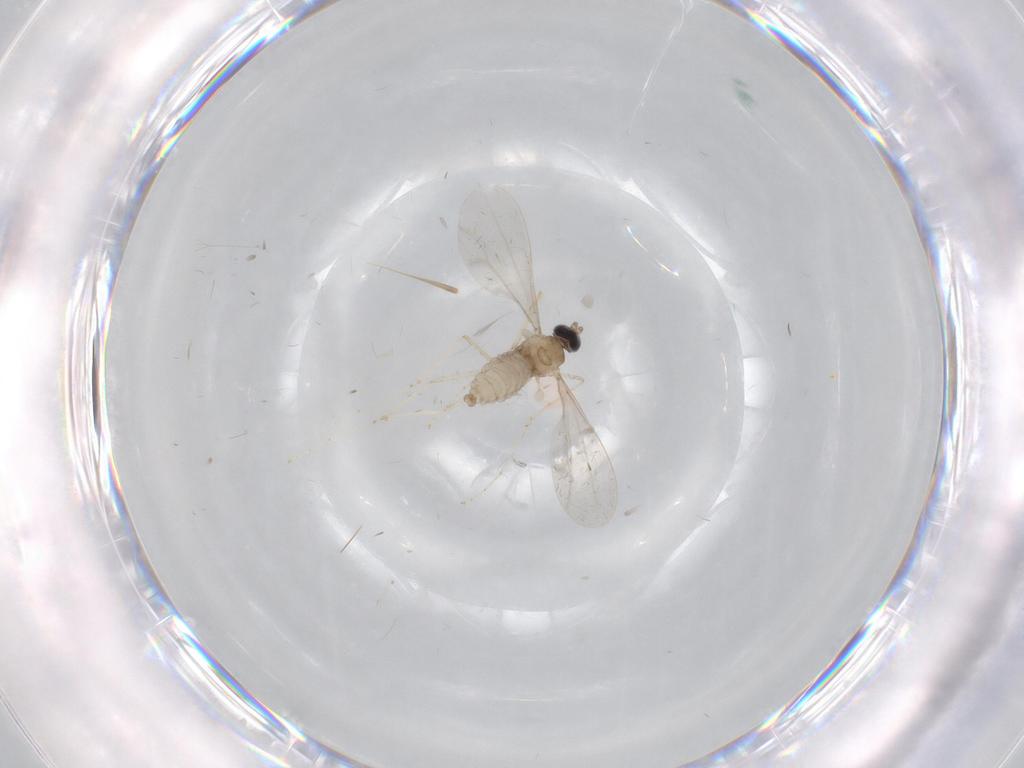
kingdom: Animalia
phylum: Arthropoda
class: Insecta
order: Diptera
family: Cecidomyiidae
